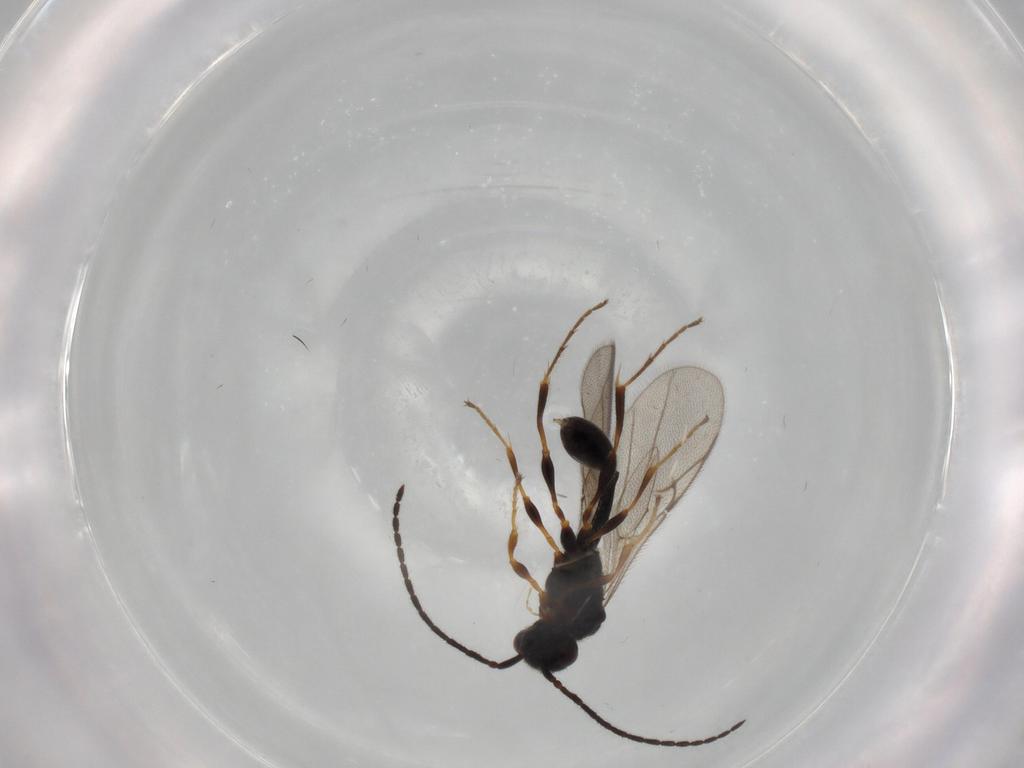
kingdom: Animalia
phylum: Arthropoda
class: Insecta
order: Hymenoptera
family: Diapriidae
